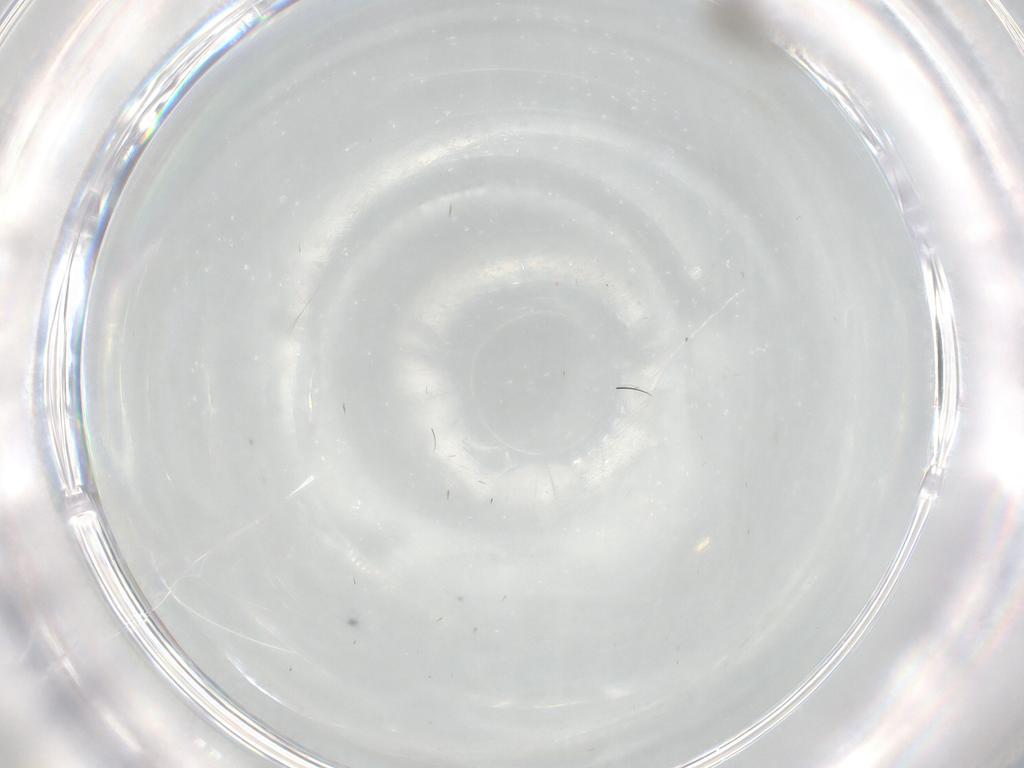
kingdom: Animalia
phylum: Arthropoda
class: Insecta
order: Diptera
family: Sciaridae
